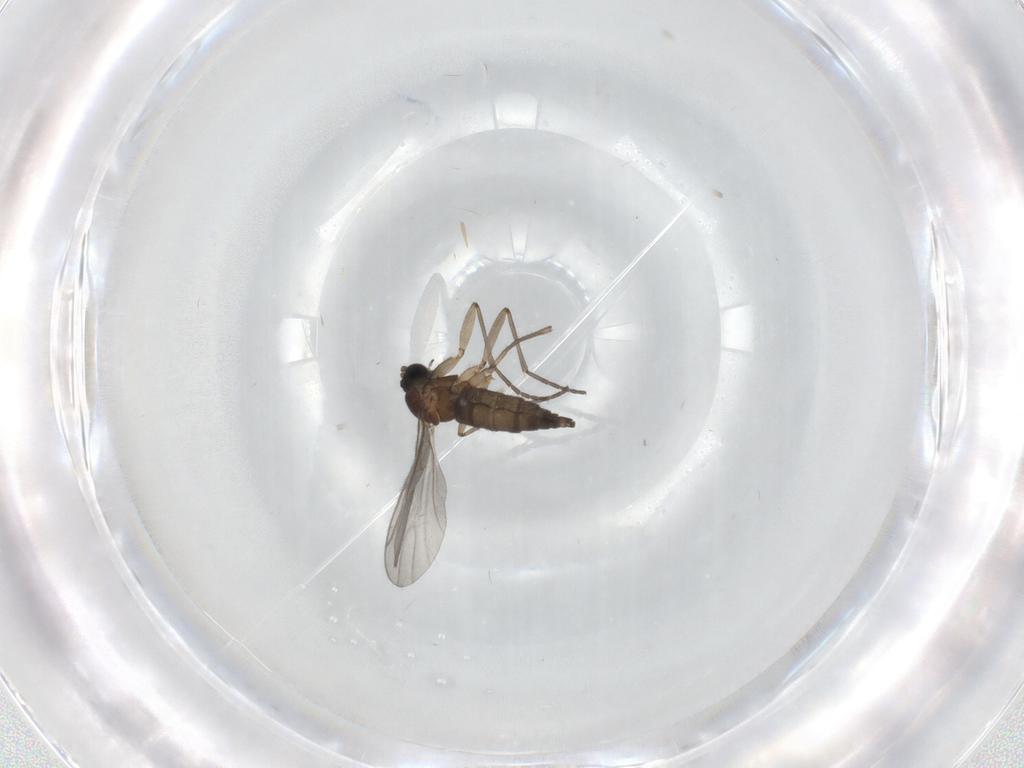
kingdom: Animalia
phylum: Arthropoda
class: Insecta
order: Diptera
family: Sciaridae
